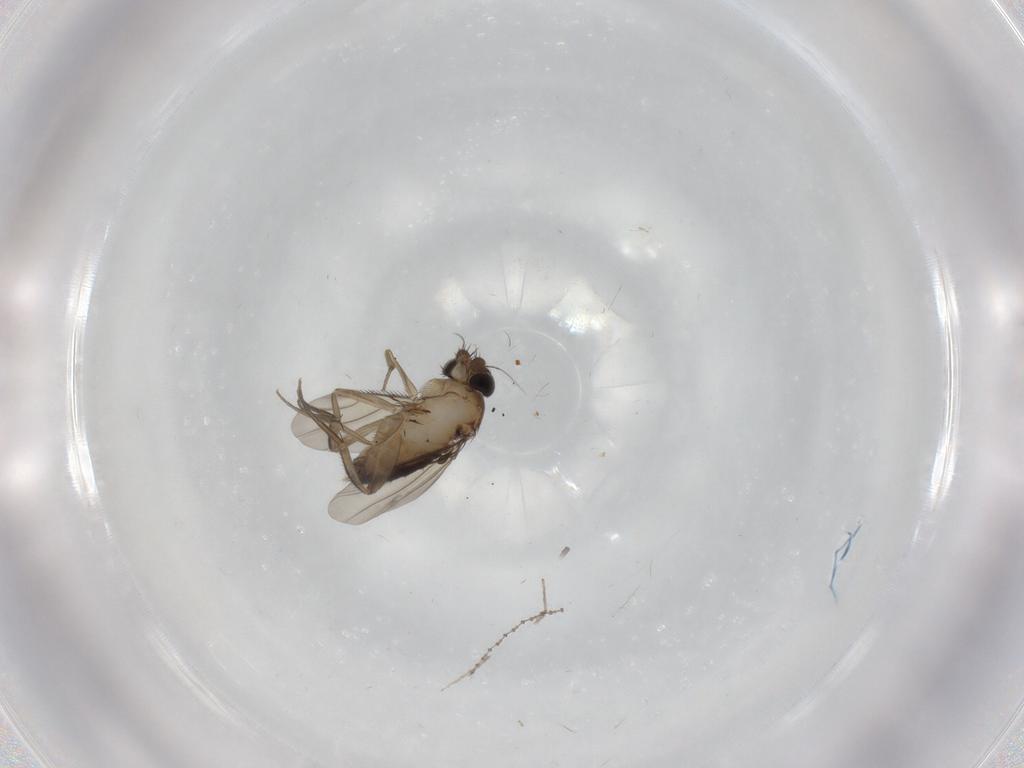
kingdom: Animalia
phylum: Arthropoda
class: Insecta
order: Diptera
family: Phoridae
